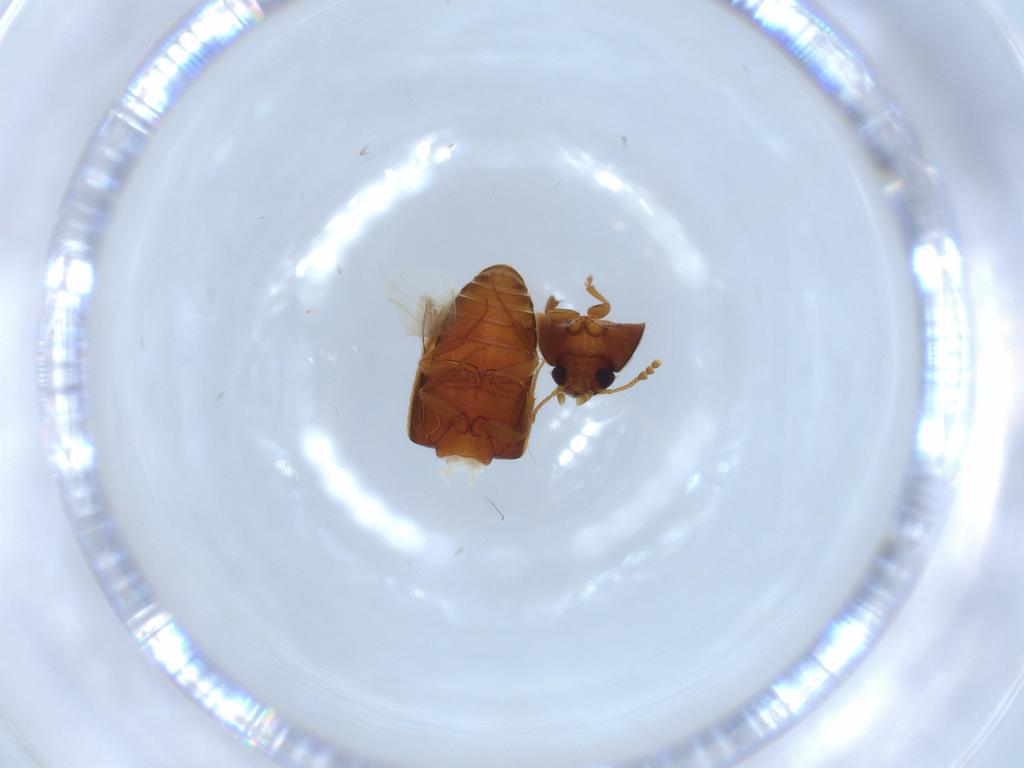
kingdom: Animalia
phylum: Arthropoda
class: Insecta
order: Coleoptera
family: Mycetophagidae
